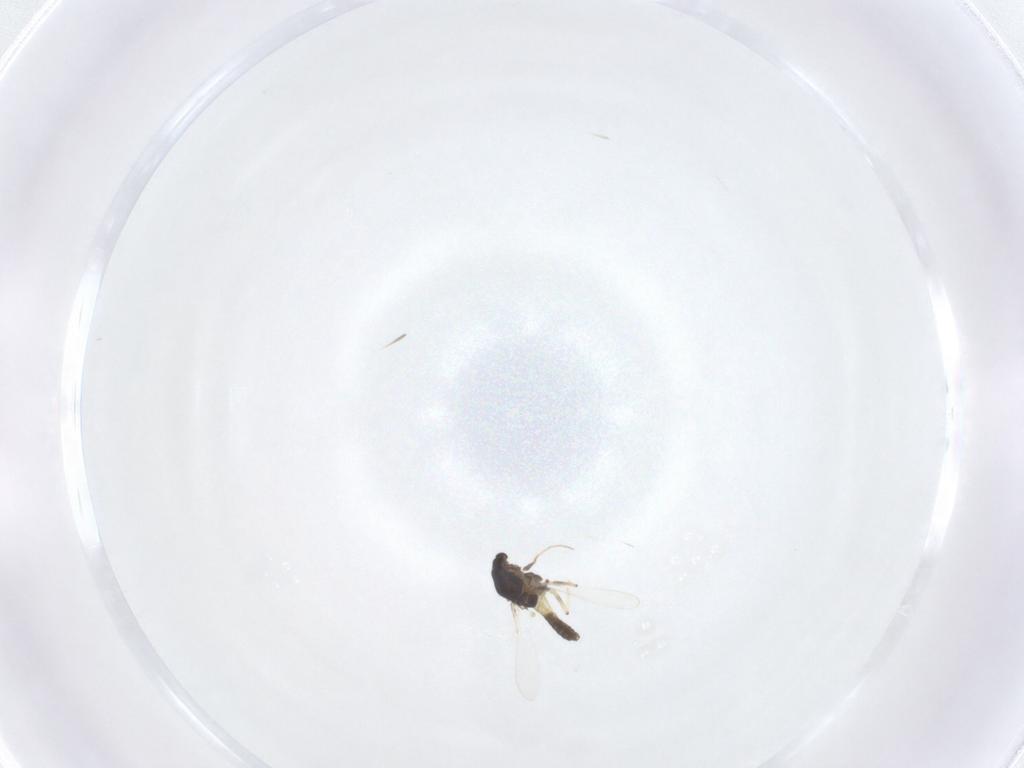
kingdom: Animalia
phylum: Arthropoda
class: Insecta
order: Diptera
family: Chironomidae
